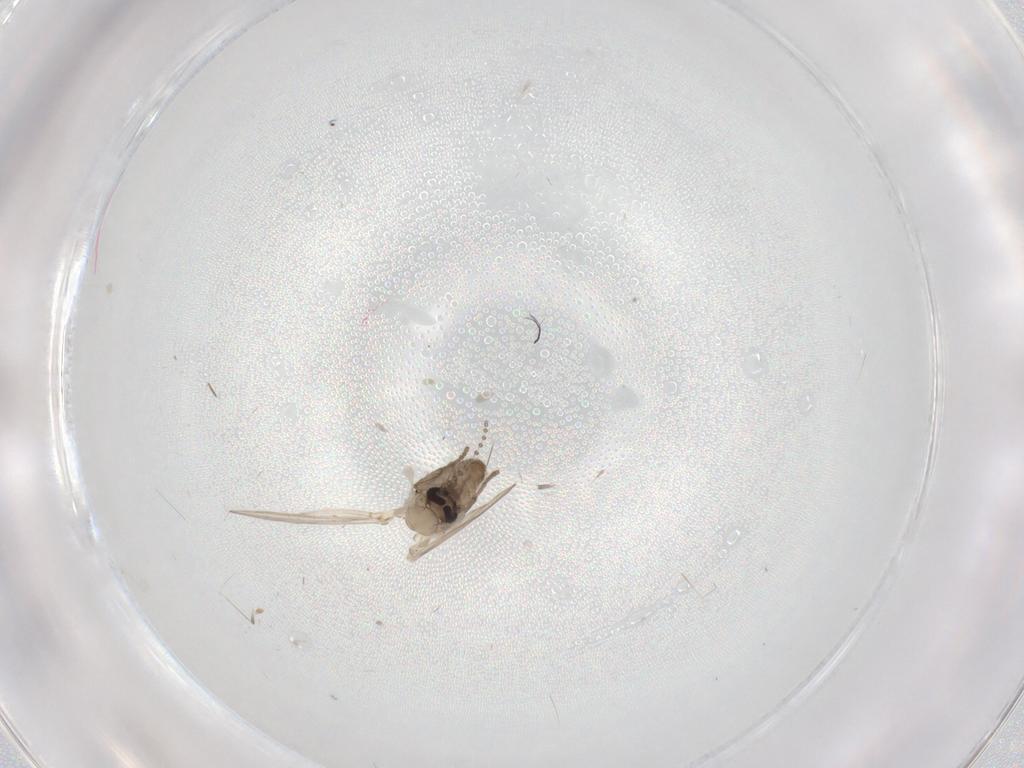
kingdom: Animalia
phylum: Arthropoda
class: Insecta
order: Diptera
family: Psychodidae
